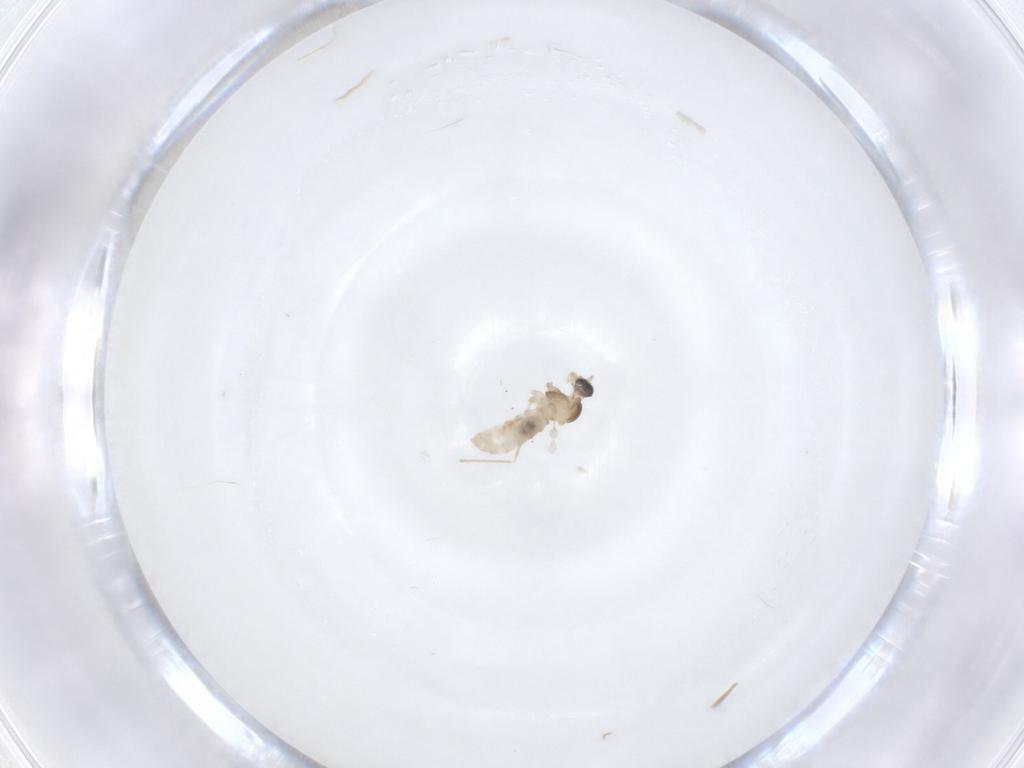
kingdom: Animalia
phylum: Arthropoda
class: Insecta
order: Diptera
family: Cecidomyiidae
